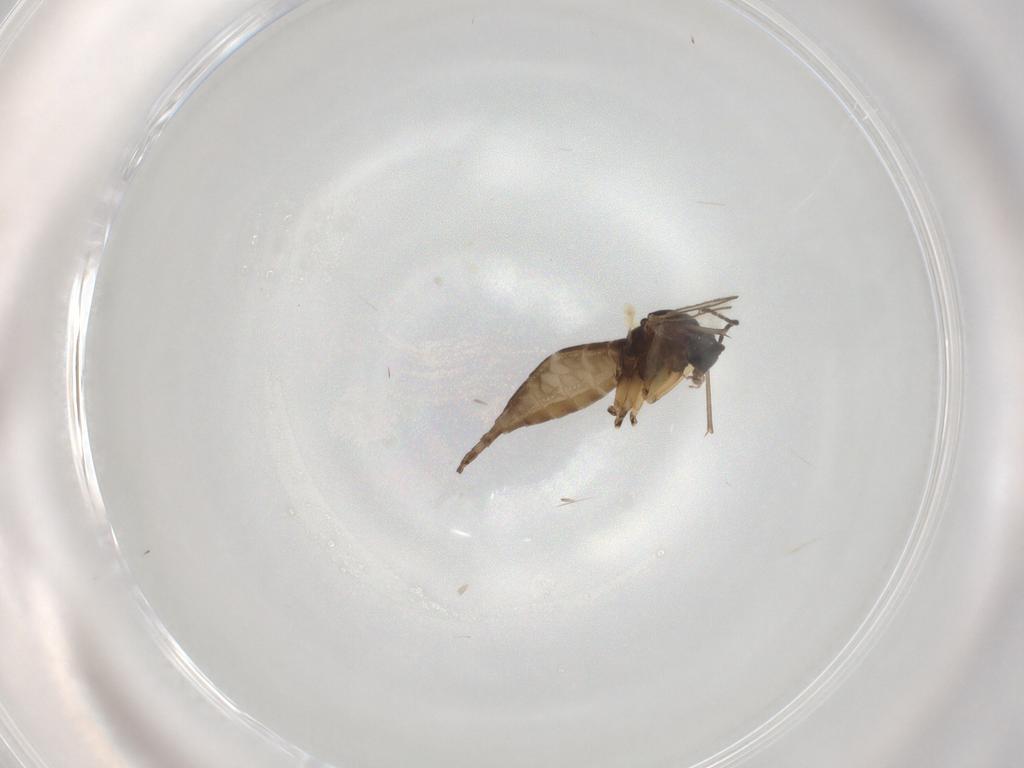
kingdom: Animalia
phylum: Arthropoda
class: Insecta
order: Diptera
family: Sciaridae
